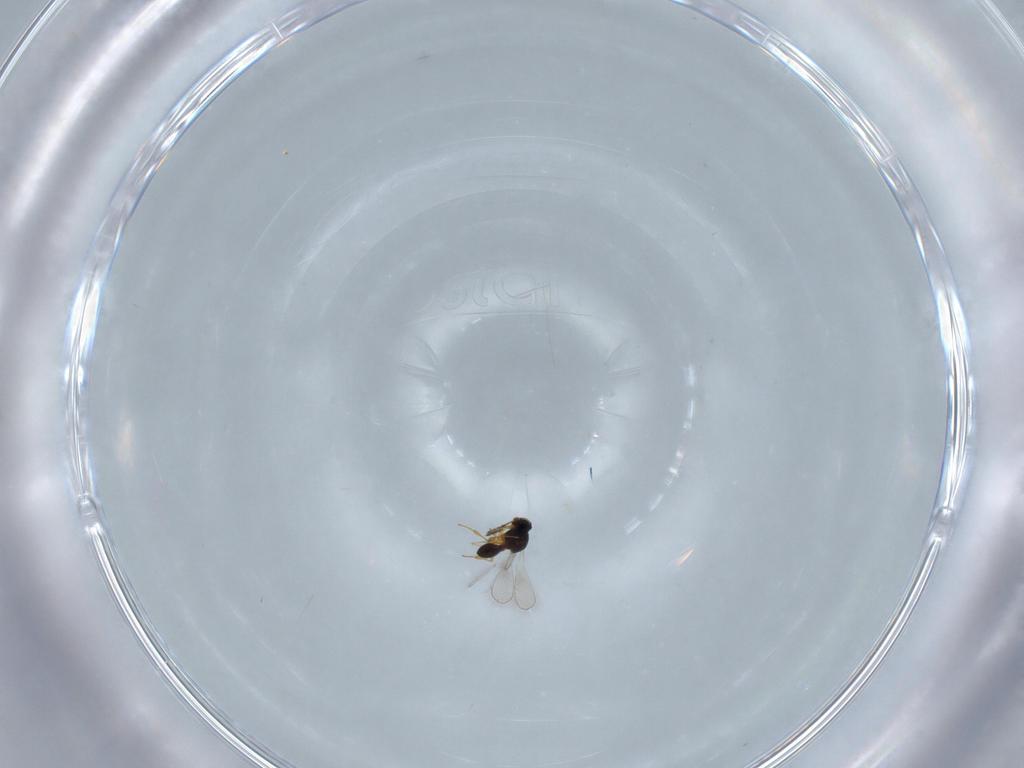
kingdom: Animalia
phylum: Arthropoda
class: Insecta
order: Hymenoptera
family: Platygastridae
